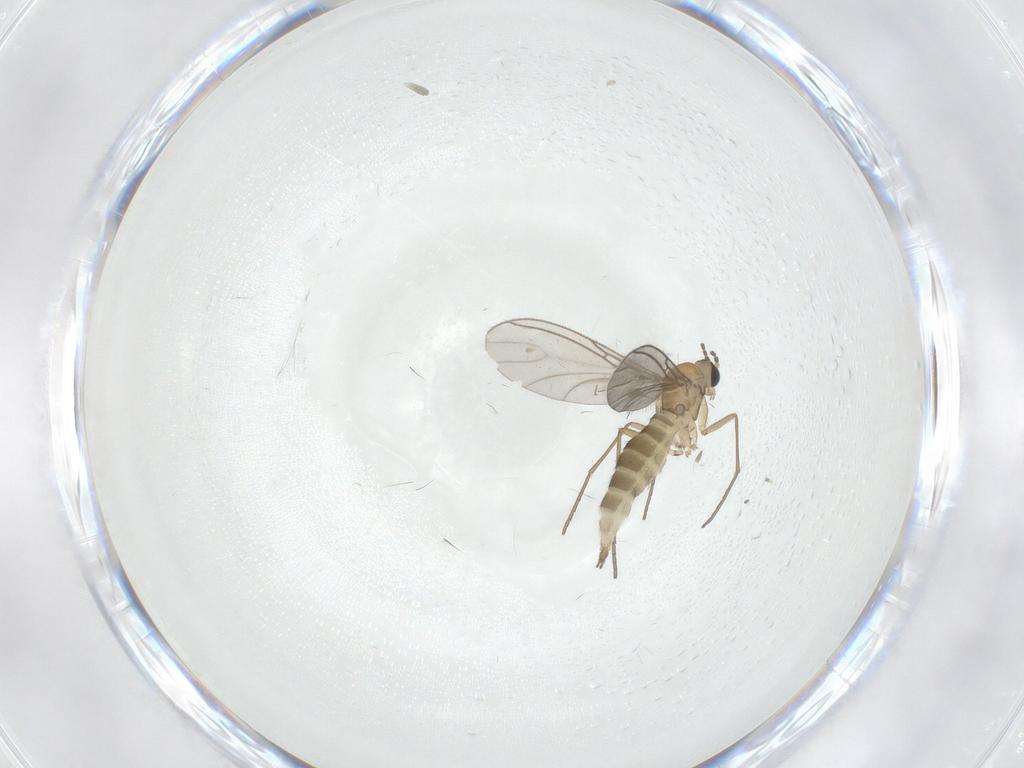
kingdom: Animalia
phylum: Arthropoda
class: Insecta
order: Diptera
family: Sciaridae
